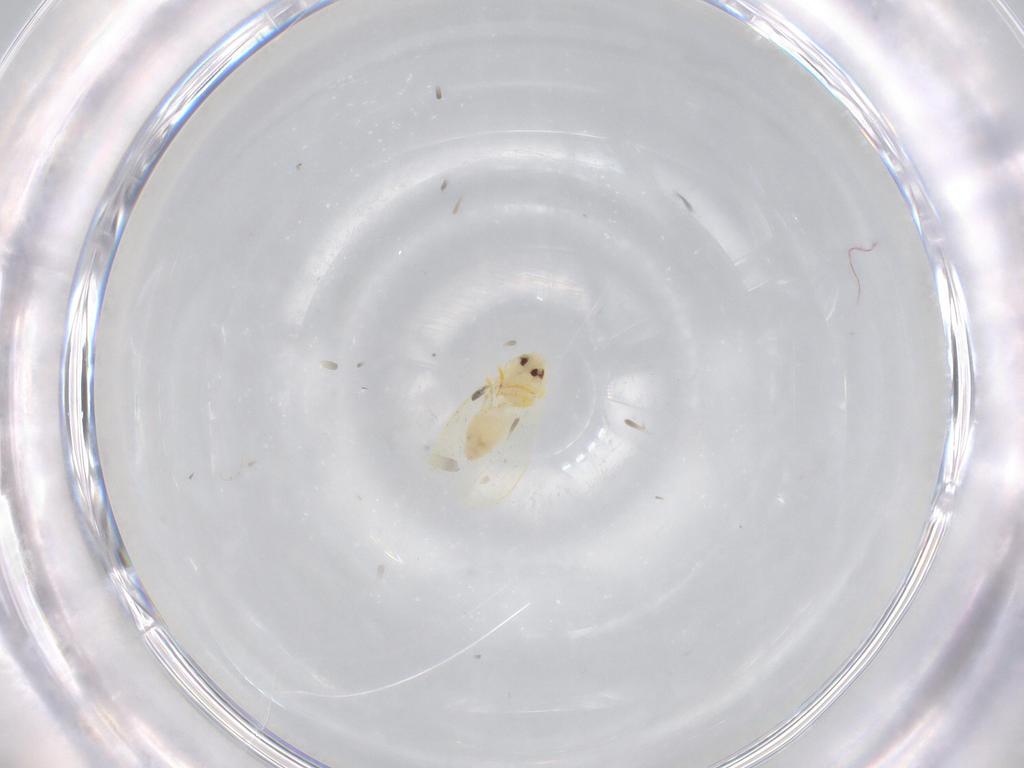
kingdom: Animalia
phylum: Arthropoda
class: Insecta
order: Hemiptera
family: Aleyrodidae
